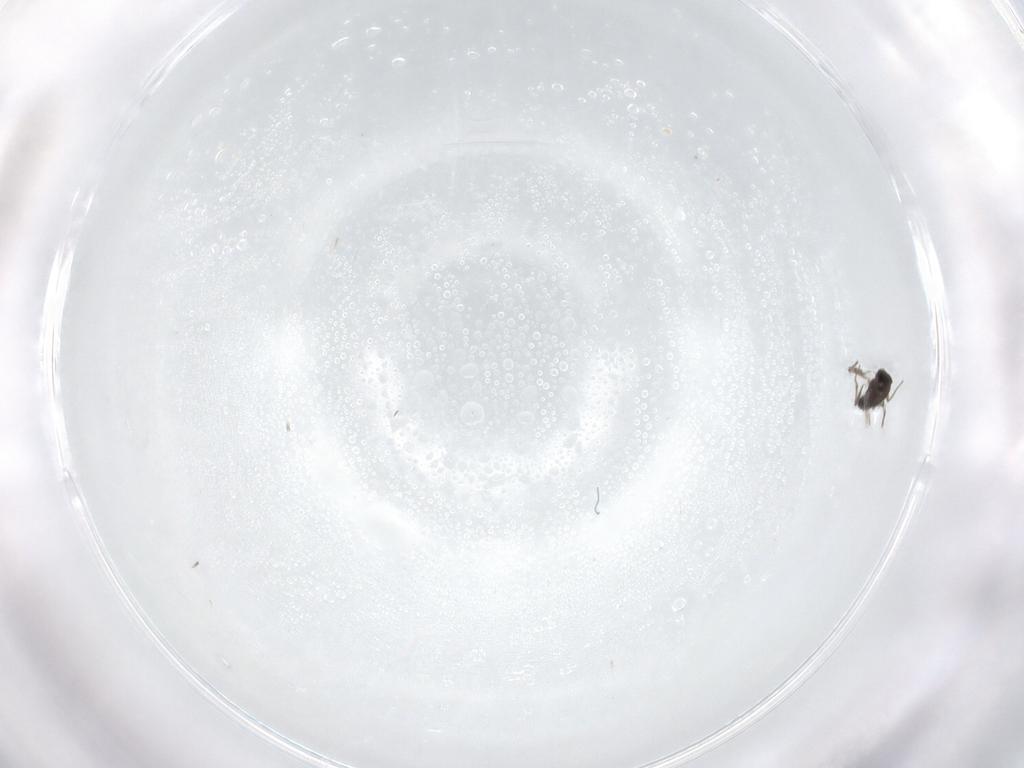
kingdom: Animalia
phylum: Arthropoda
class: Insecta
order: Diptera
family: Chironomidae
